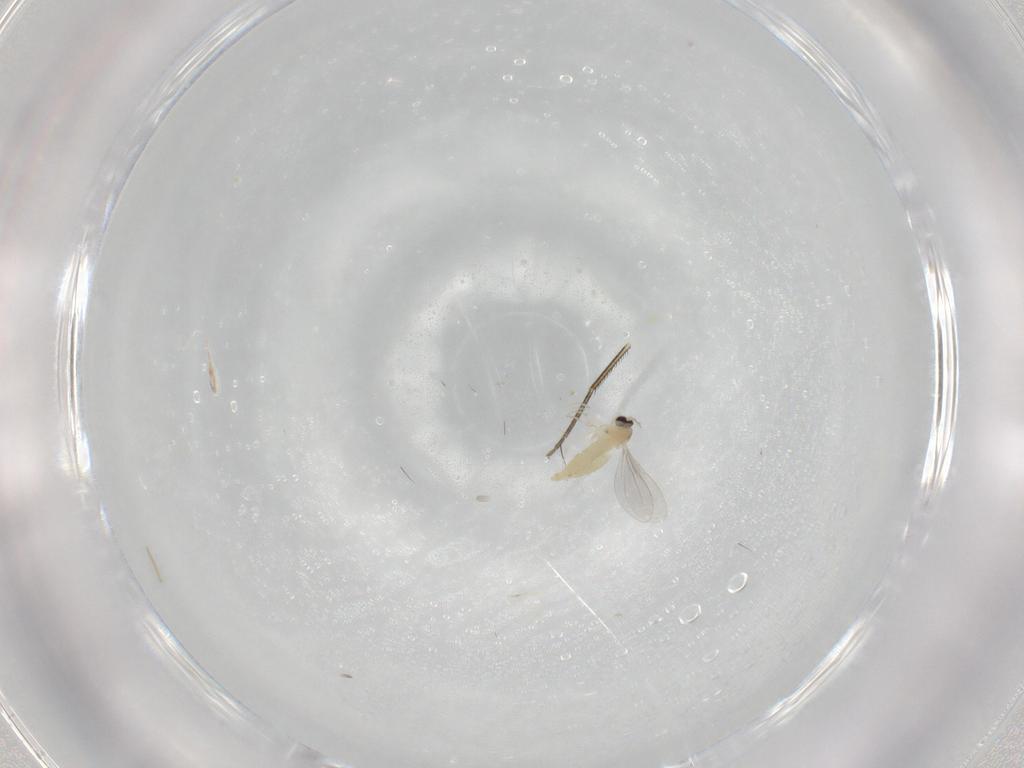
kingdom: Animalia
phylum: Arthropoda
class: Insecta
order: Diptera
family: Cecidomyiidae
